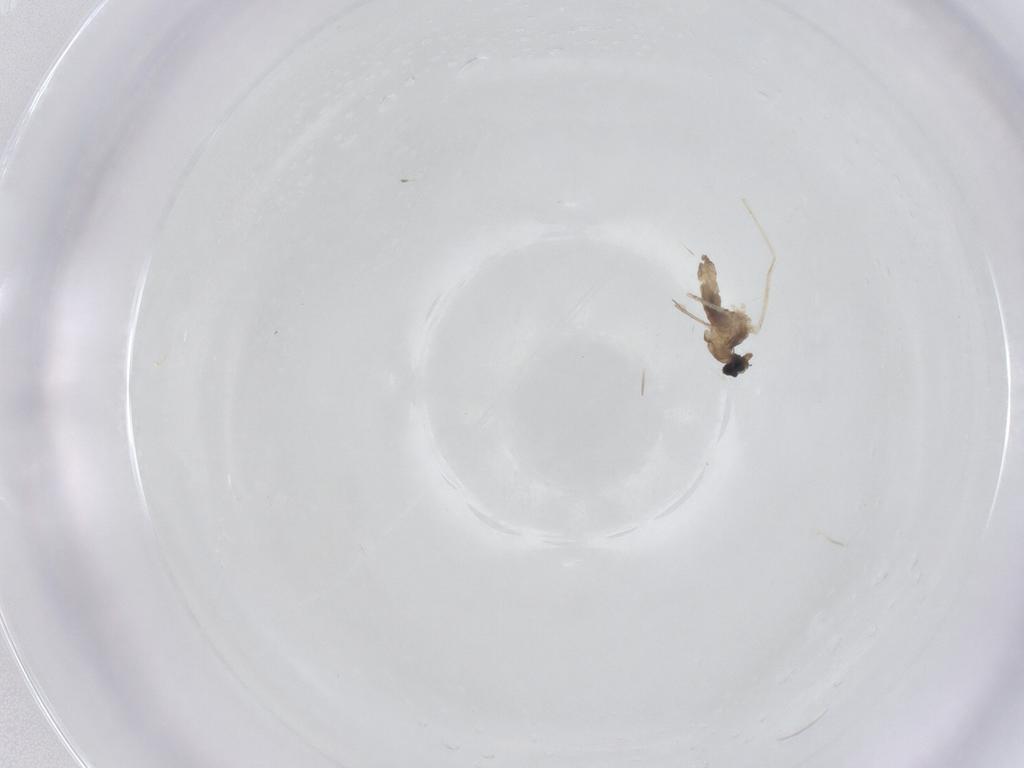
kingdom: Animalia
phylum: Arthropoda
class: Insecta
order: Diptera
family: Cecidomyiidae
